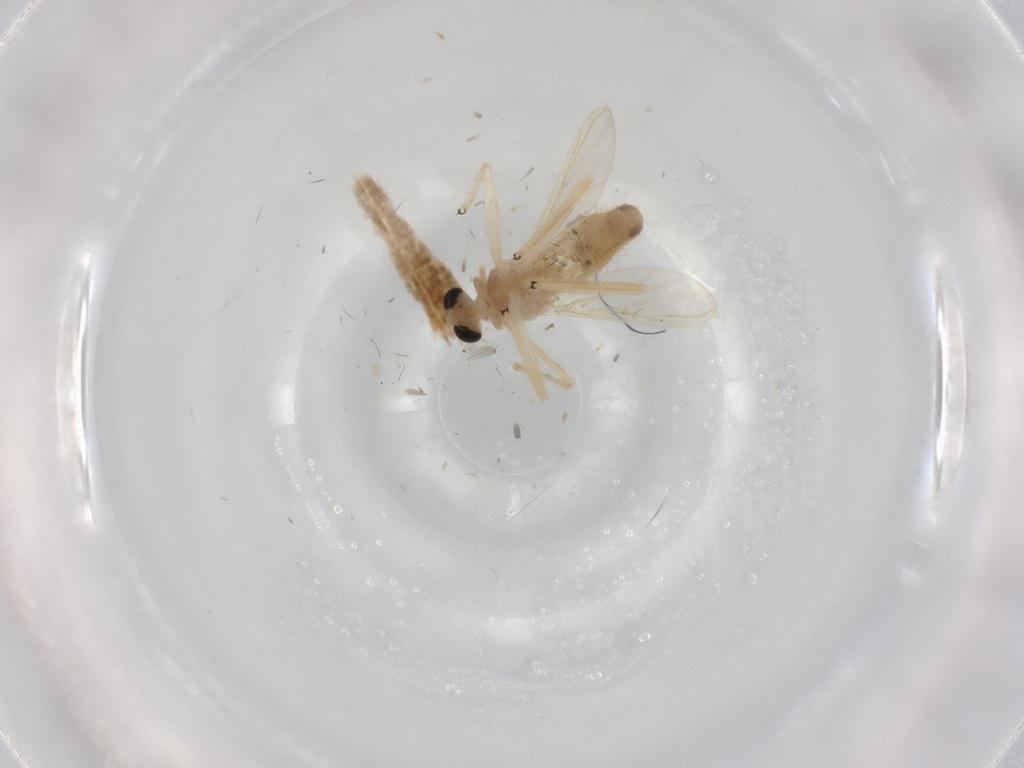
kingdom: Animalia
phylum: Arthropoda
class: Insecta
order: Diptera
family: Chironomidae
